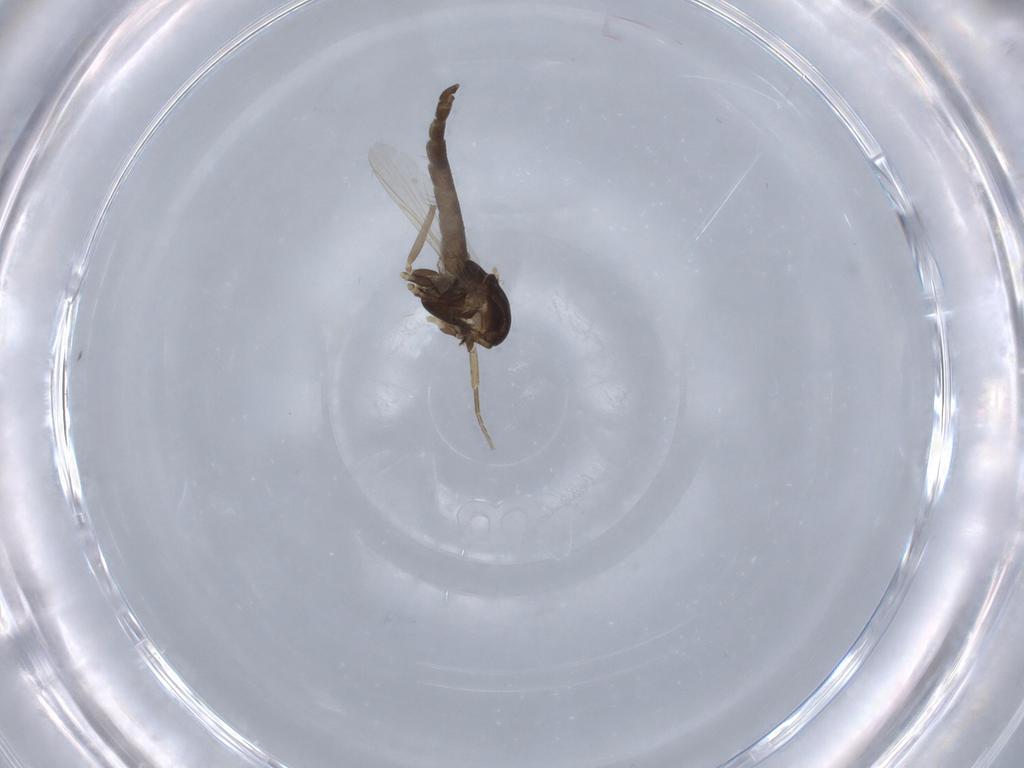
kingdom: Animalia
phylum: Arthropoda
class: Insecta
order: Diptera
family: Chironomidae
